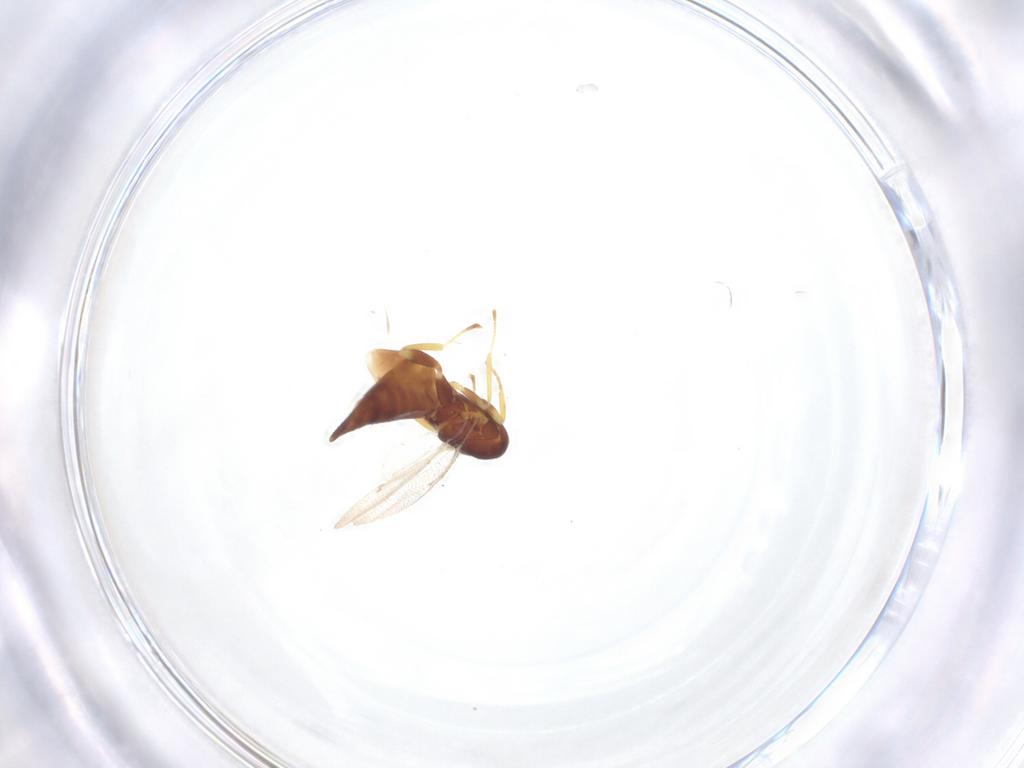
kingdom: Animalia
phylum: Arthropoda
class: Insecta
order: Hymenoptera
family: Eulophidae
